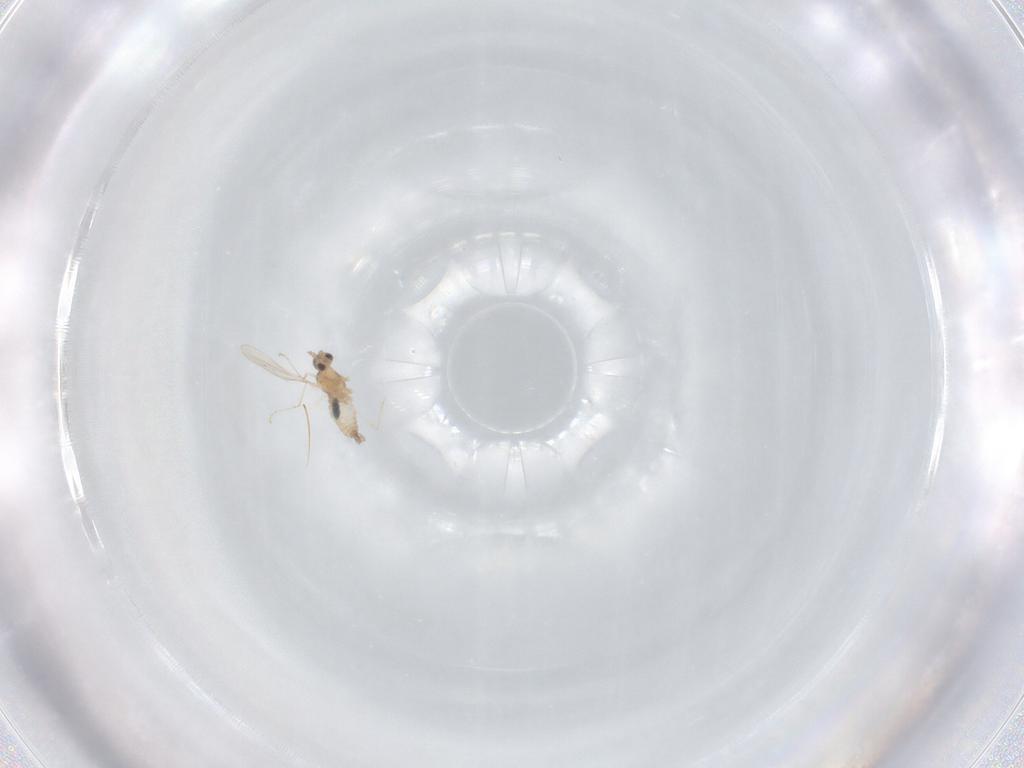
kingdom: Animalia
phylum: Arthropoda
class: Insecta
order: Diptera
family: Cecidomyiidae
